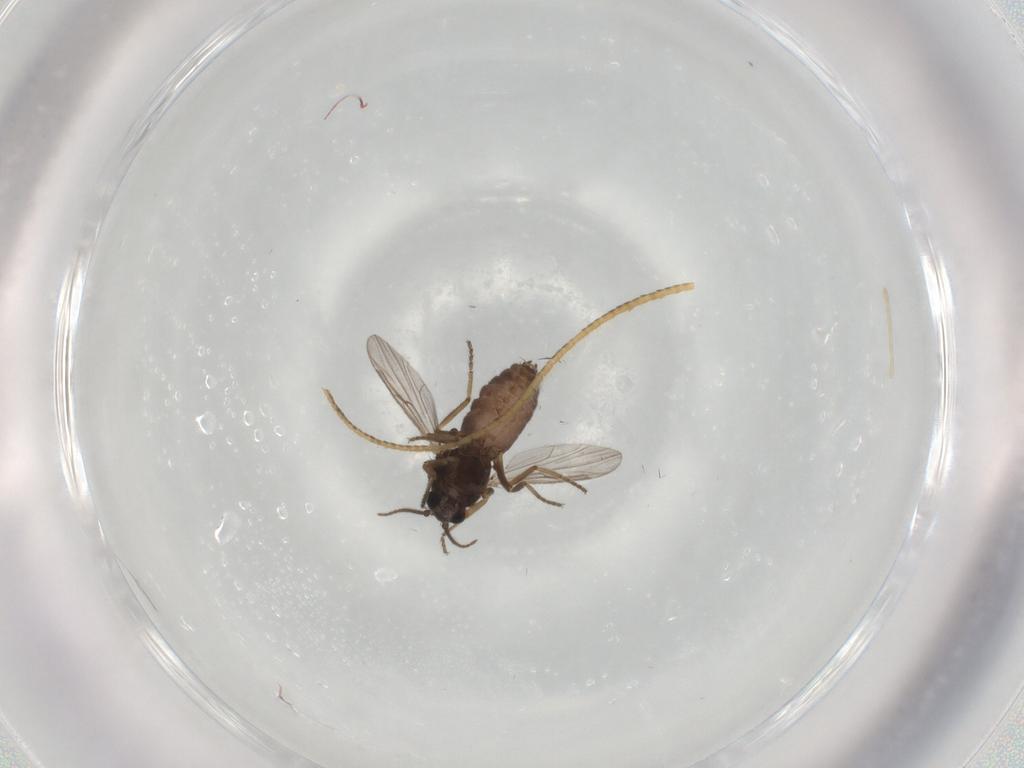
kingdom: Animalia
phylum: Arthropoda
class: Insecta
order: Diptera
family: Ceratopogonidae
